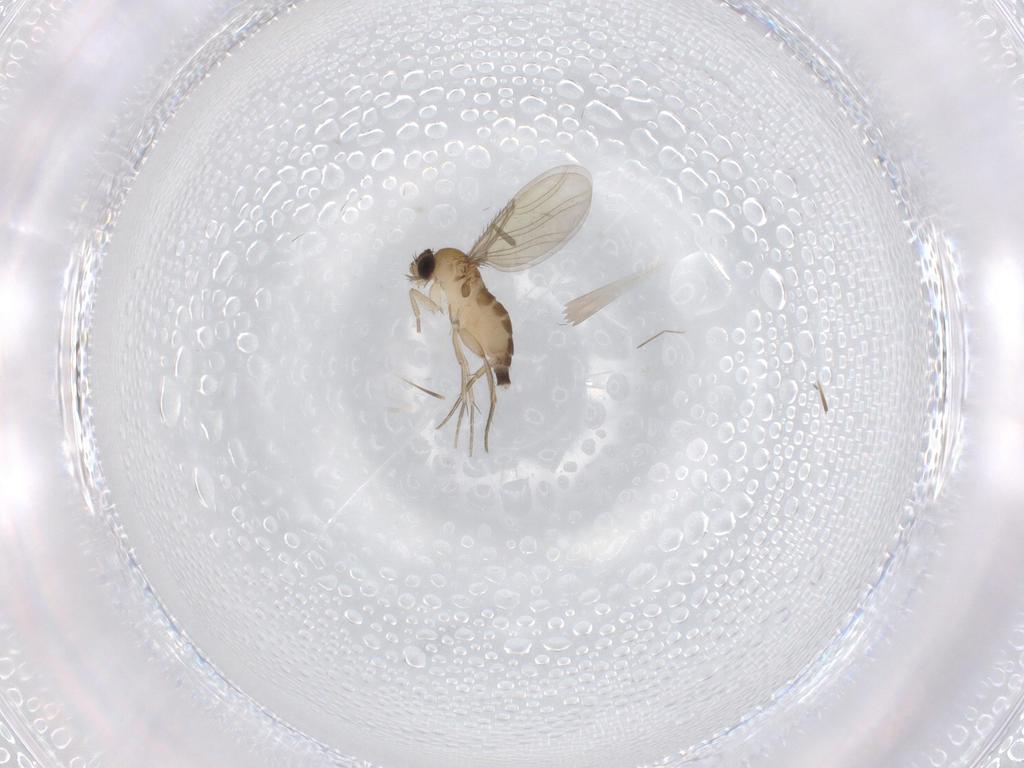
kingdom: Animalia
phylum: Arthropoda
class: Insecta
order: Diptera
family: Phoridae
